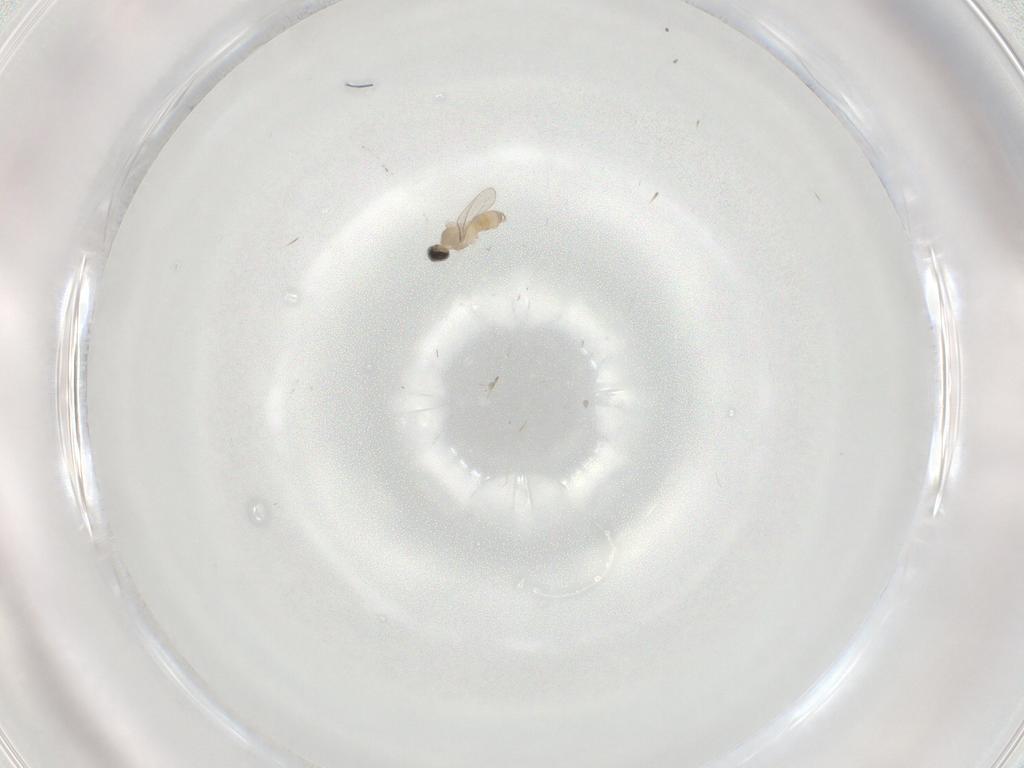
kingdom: Animalia
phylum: Arthropoda
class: Insecta
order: Diptera
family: Cecidomyiidae
